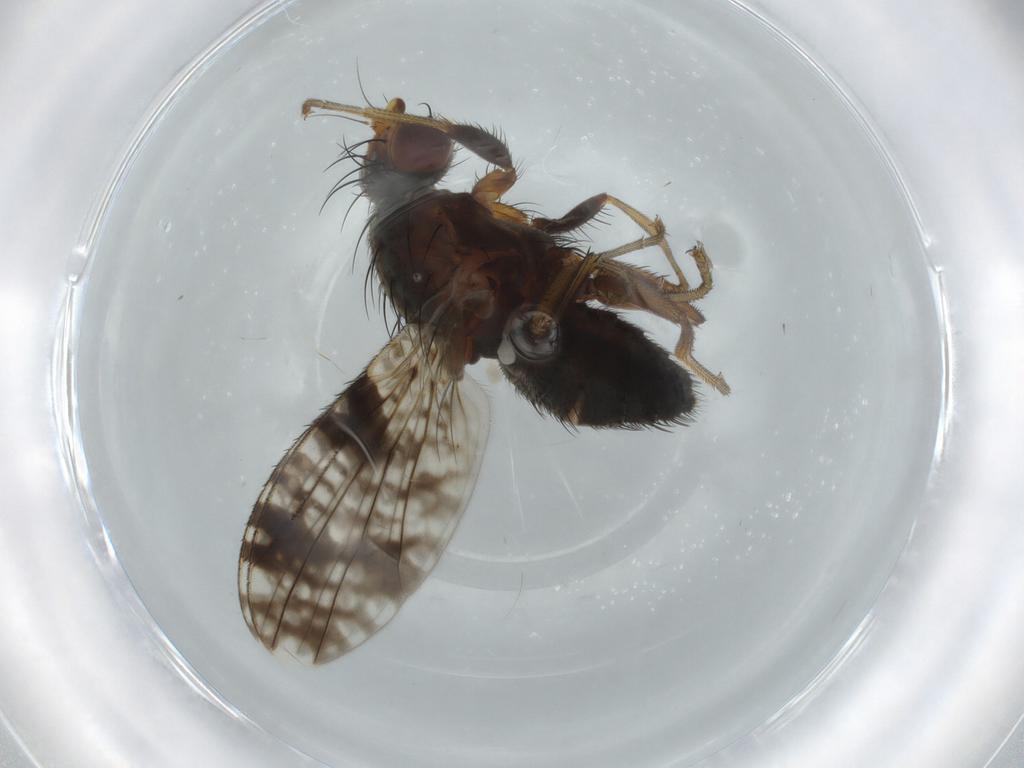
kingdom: Animalia
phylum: Arthropoda
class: Insecta
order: Diptera
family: Tephritidae
